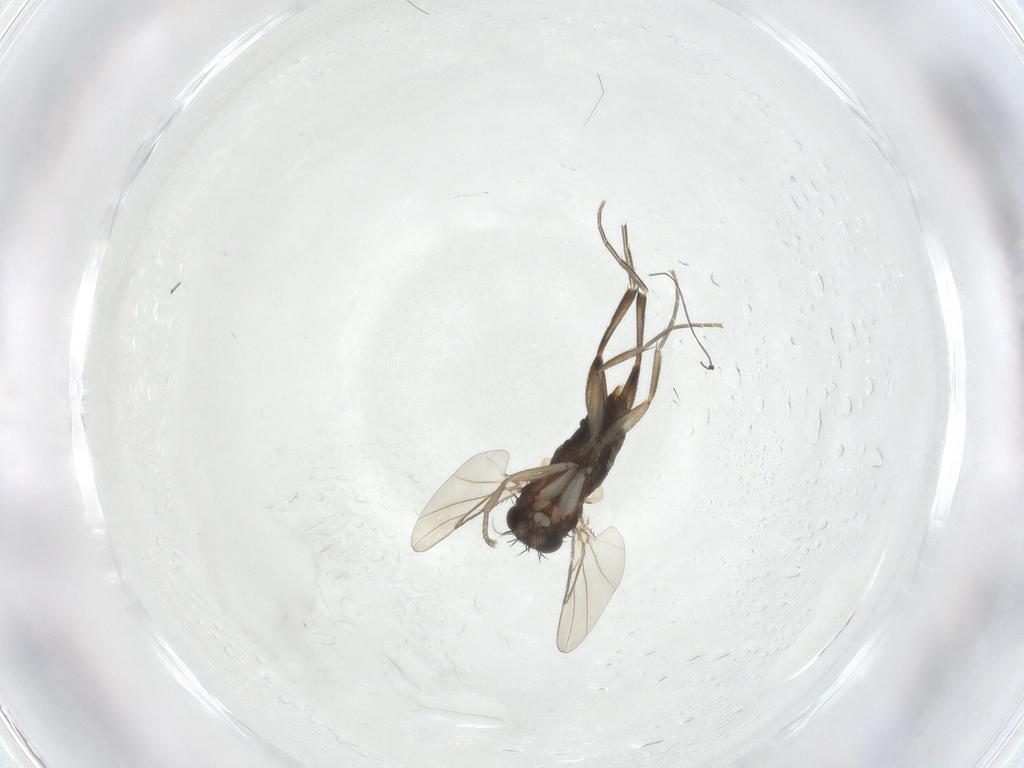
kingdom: Animalia
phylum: Arthropoda
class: Insecta
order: Diptera
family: Phoridae
